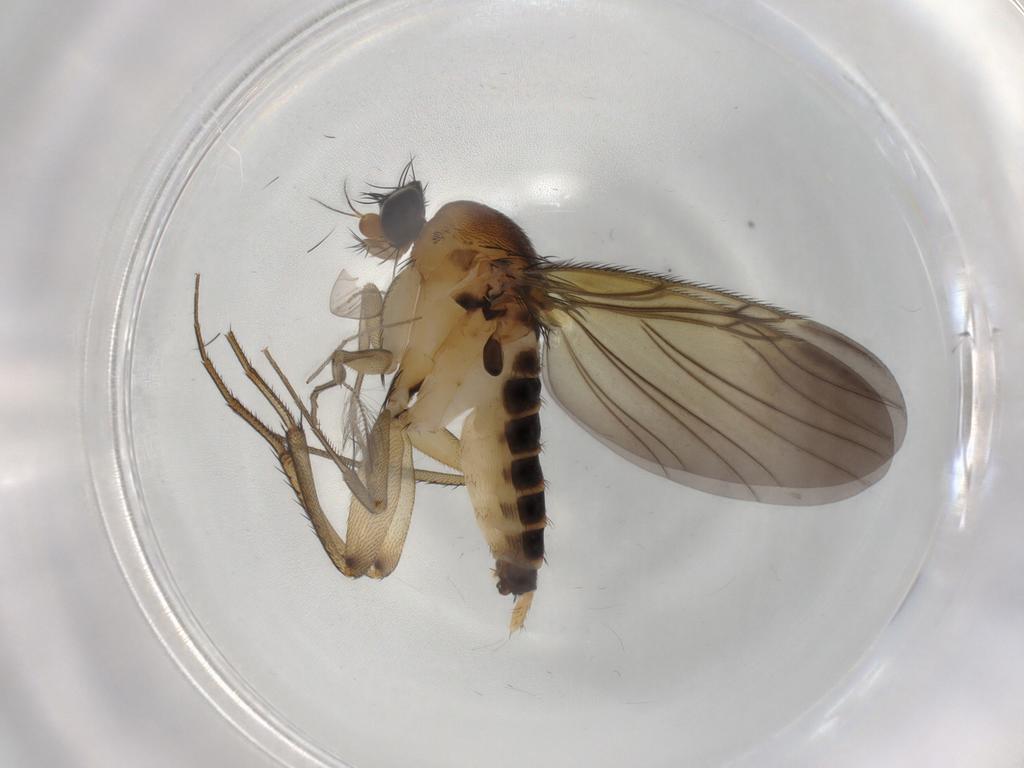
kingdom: Animalia
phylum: Arthropoda
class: Insecta
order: Diptera
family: Phoridae
